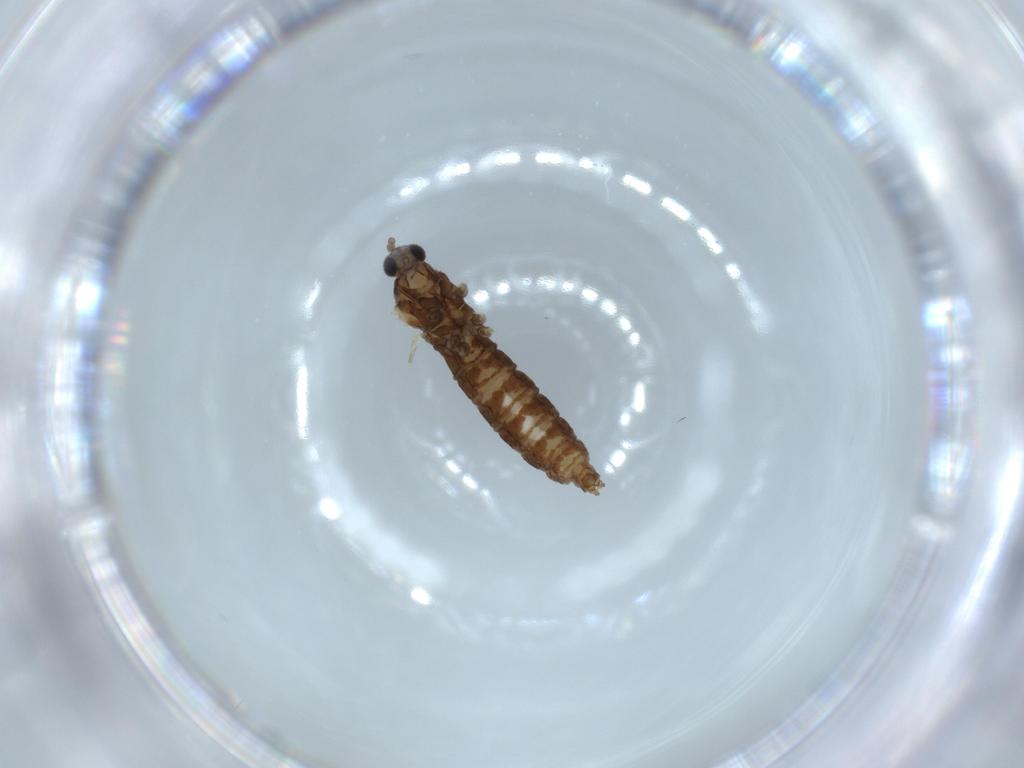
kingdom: Animalia
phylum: Arthropoda
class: Insecta
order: Diptera
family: Cecidomyiidae
